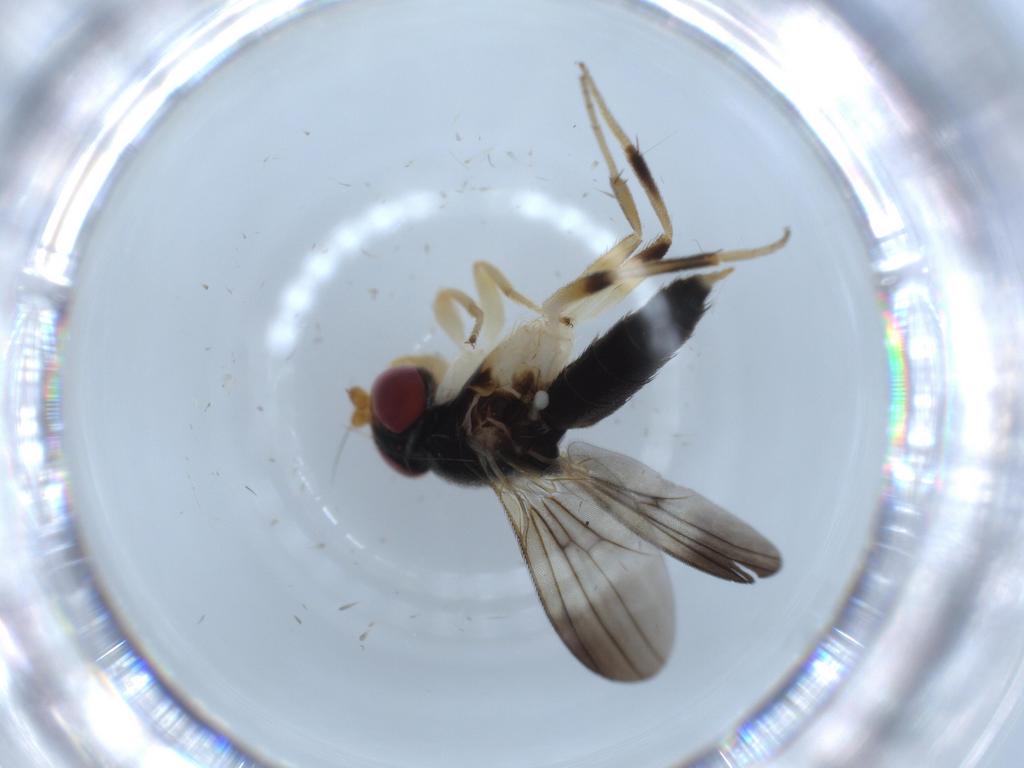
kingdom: Animalia
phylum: Arthropoda
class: Insecta
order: Diptera
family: Clusiidae
